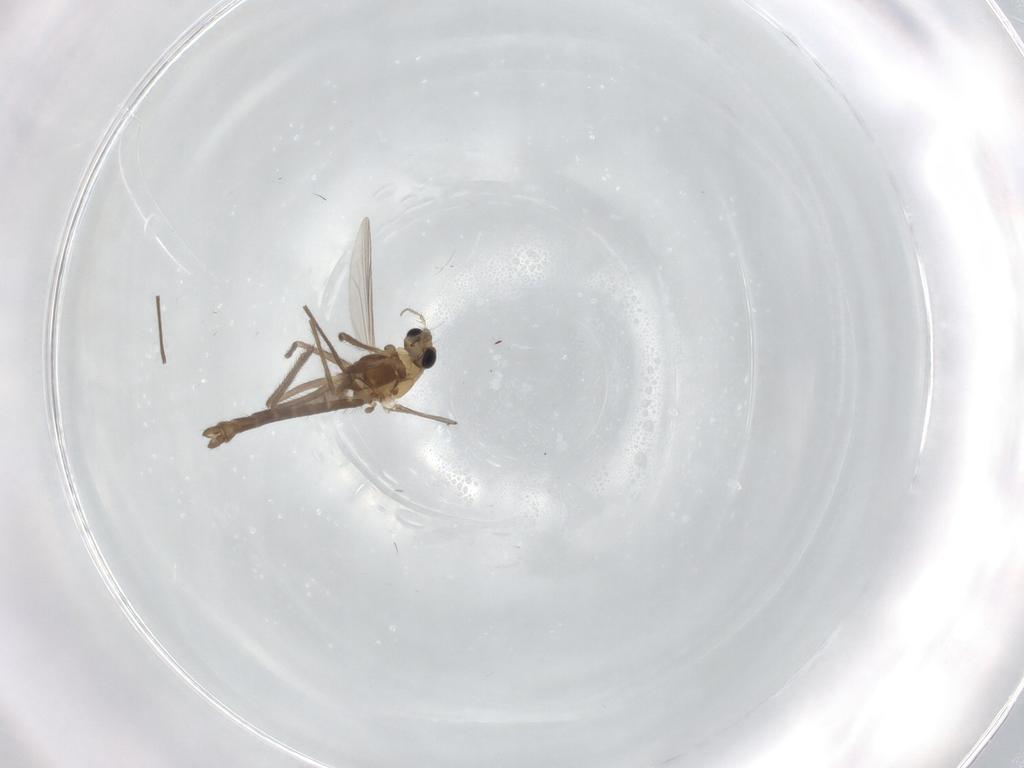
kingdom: Animalia
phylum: Arthropoda
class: Insecta
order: Diptera
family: Chironomidae
